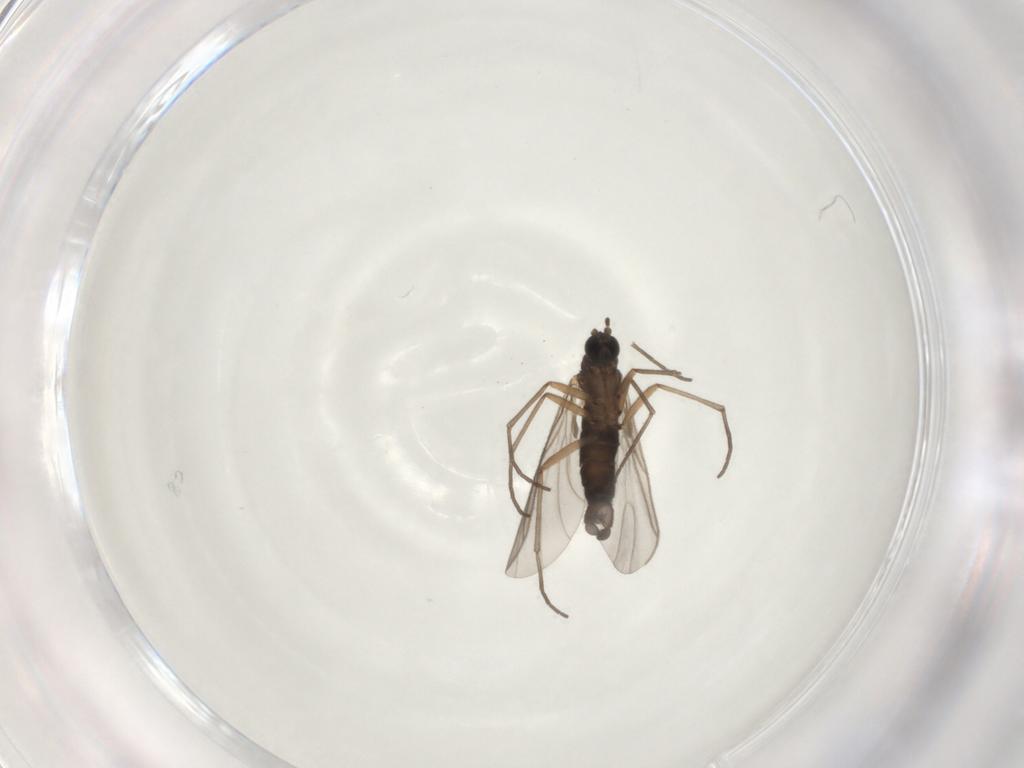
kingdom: Animalia
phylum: Arthropoda
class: Insecta
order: Diptera
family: Sciaridae
